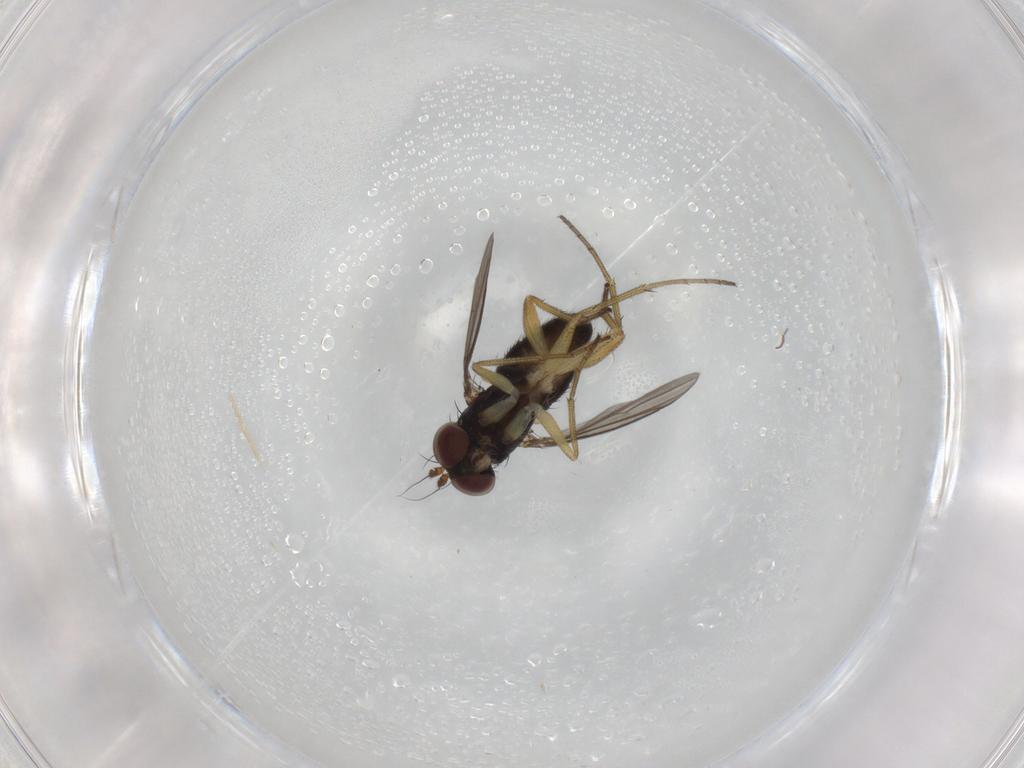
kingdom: Animalia
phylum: Arthropoda
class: Insecta
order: Diptera
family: Dolichopodidae
